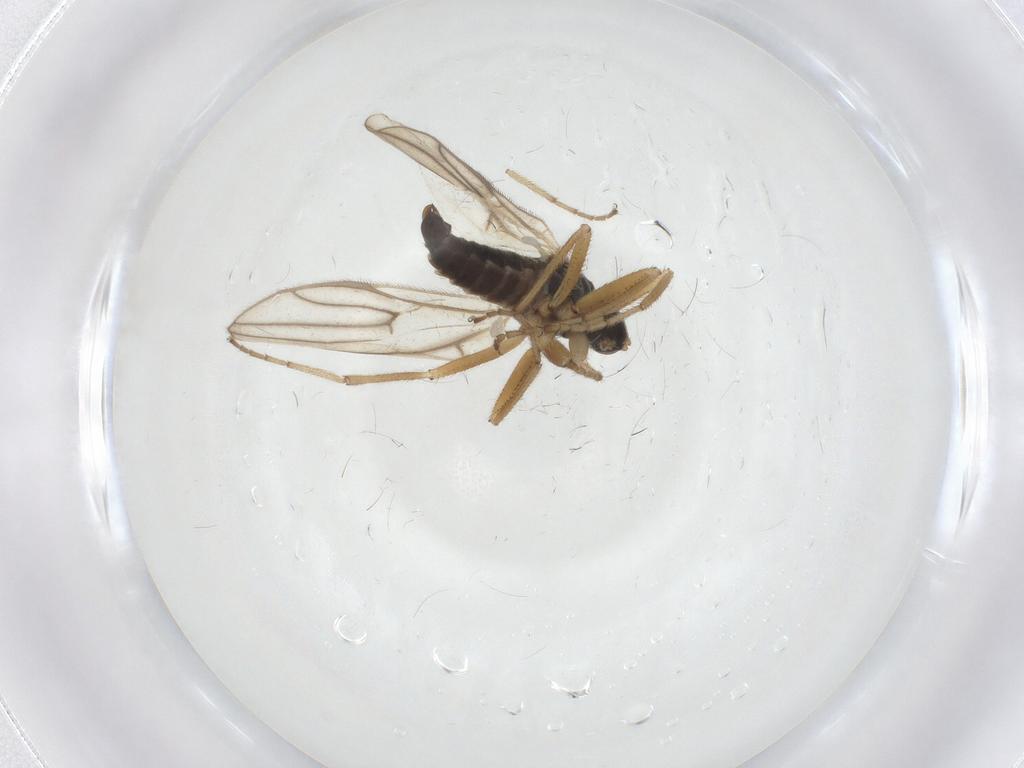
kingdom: Animalia
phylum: Arthropoda
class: Insecta
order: Diptera
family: Hybotidae
